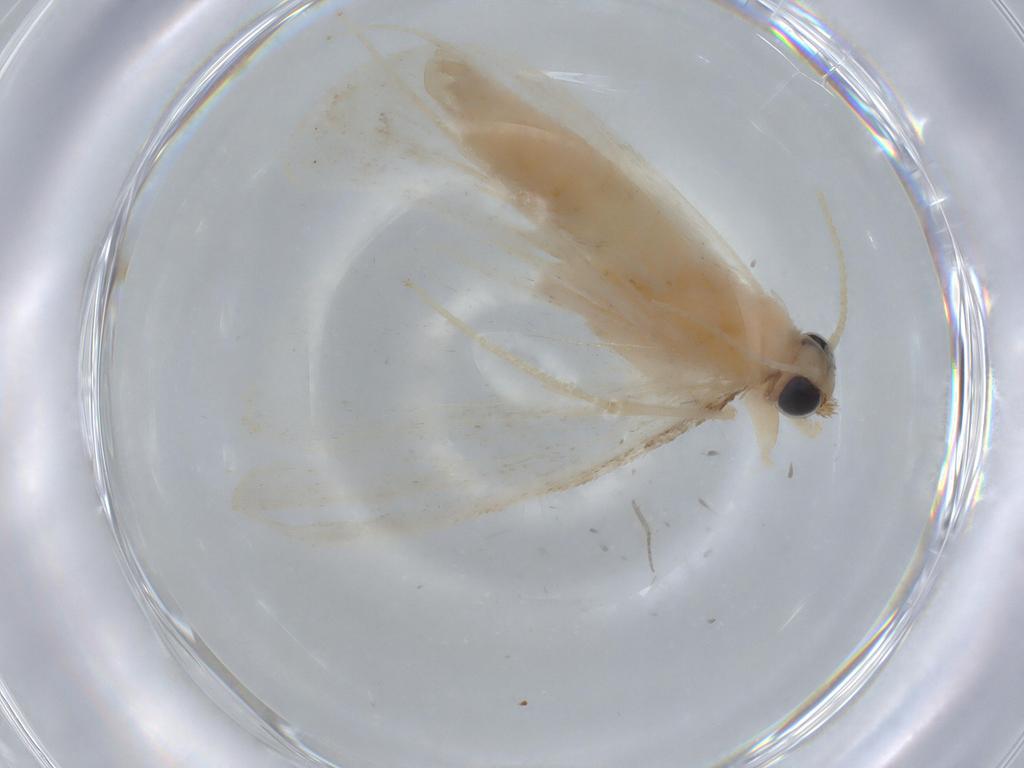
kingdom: Animalia
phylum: Arthropoda
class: Insecta
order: Lepidoptera
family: Crambidae
